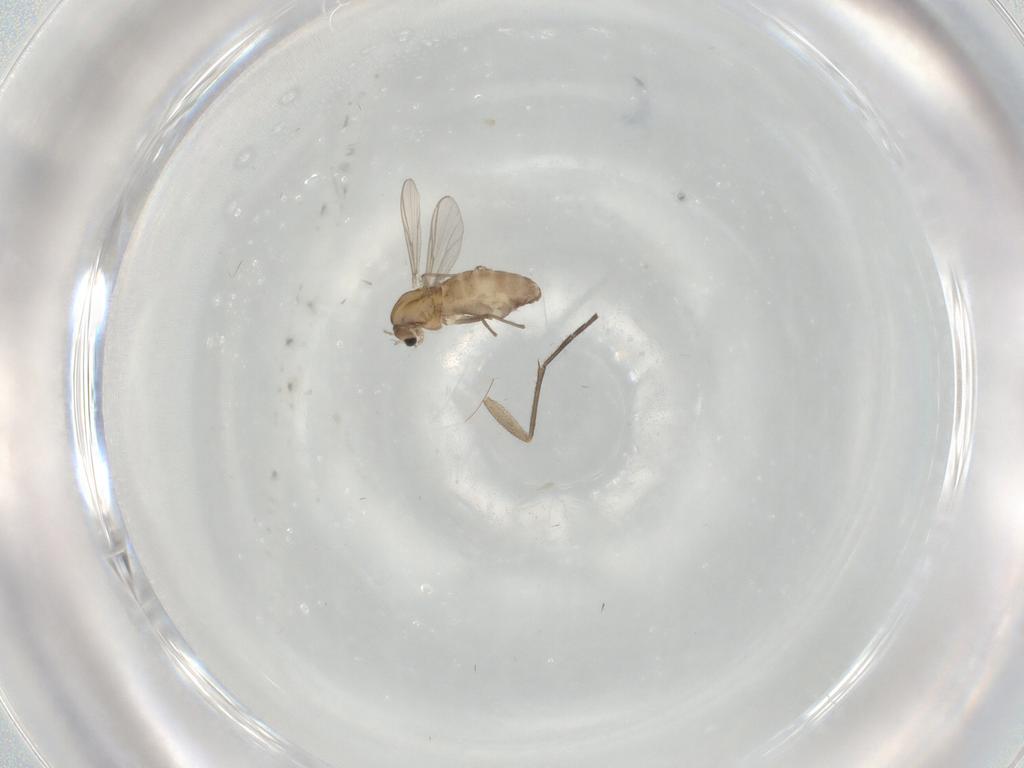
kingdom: Animalia
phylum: Arthropoda
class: Insecta
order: Diptera
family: Chironomidae
